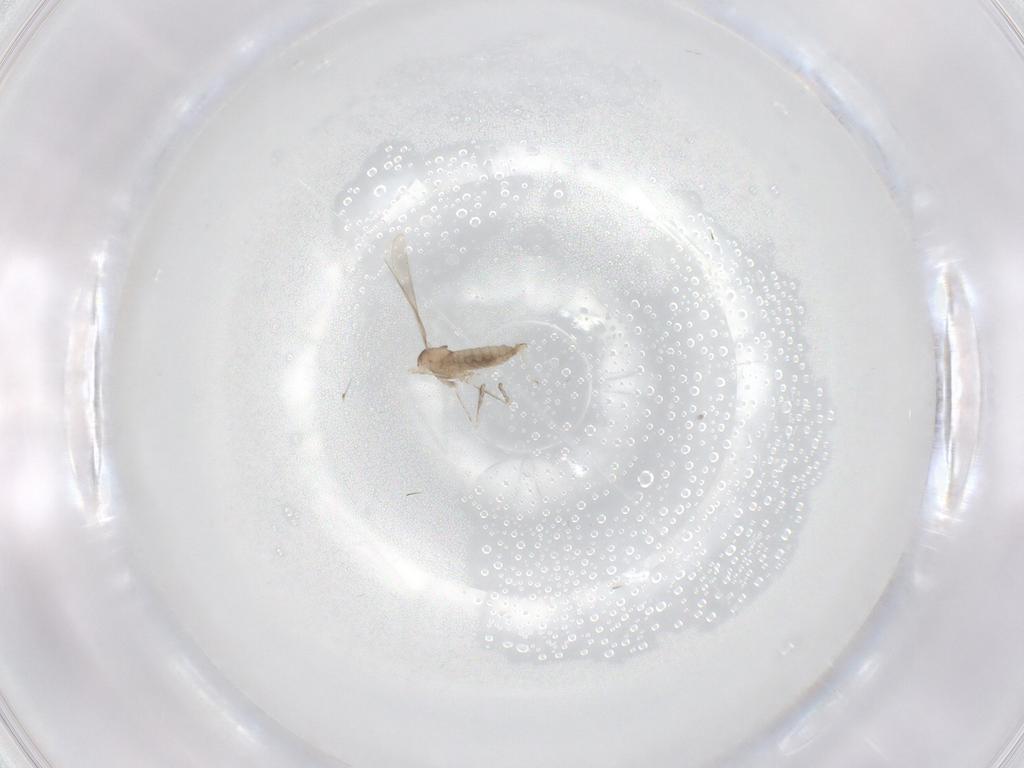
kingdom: Animalia
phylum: Arthropoda
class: Insecta
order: Diptera
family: Cecidomyiidae
